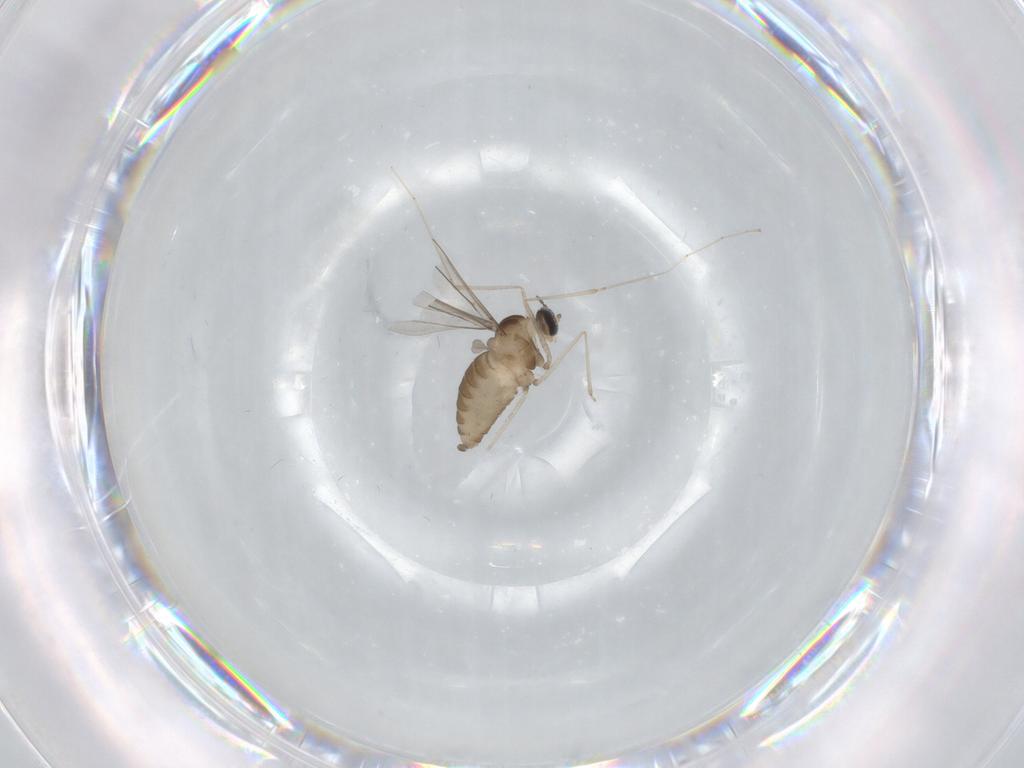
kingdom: Animalia
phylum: Arthropoda
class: Insecta
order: Diptera
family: Cecidomyiidae
